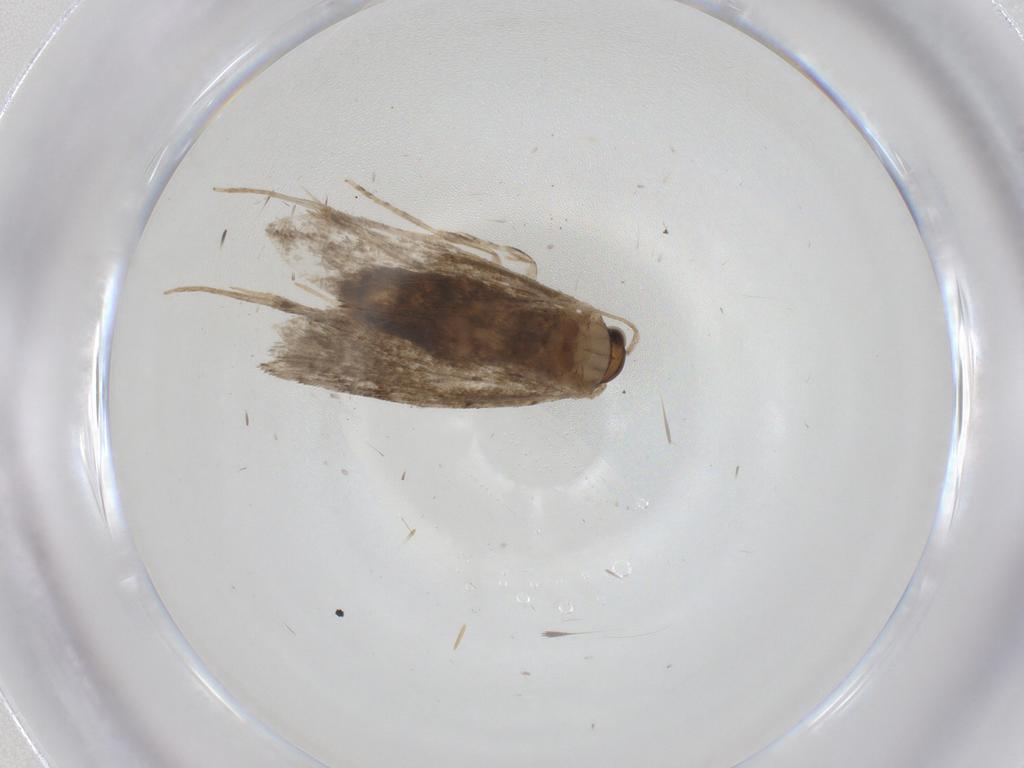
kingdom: Animalia
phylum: Arthropoda
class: Insecta
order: Lepidoptera
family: Tineidae
